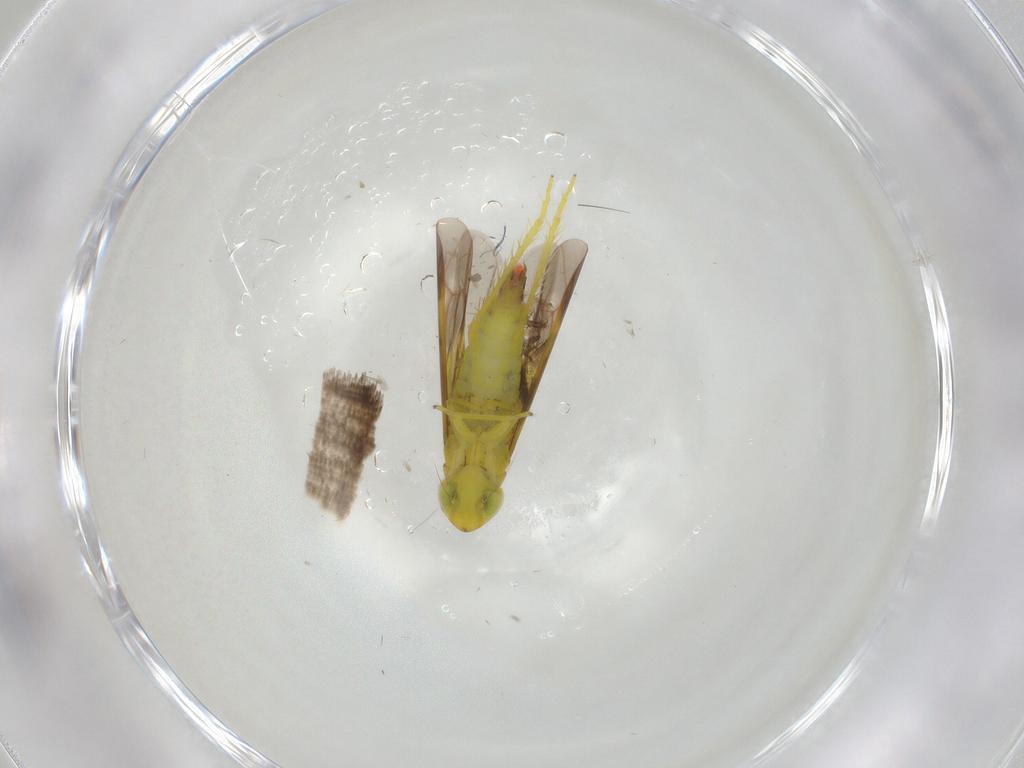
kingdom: Animalia
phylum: Arthropoda
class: Insecta
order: Hemiptera
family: Cicadellidae
